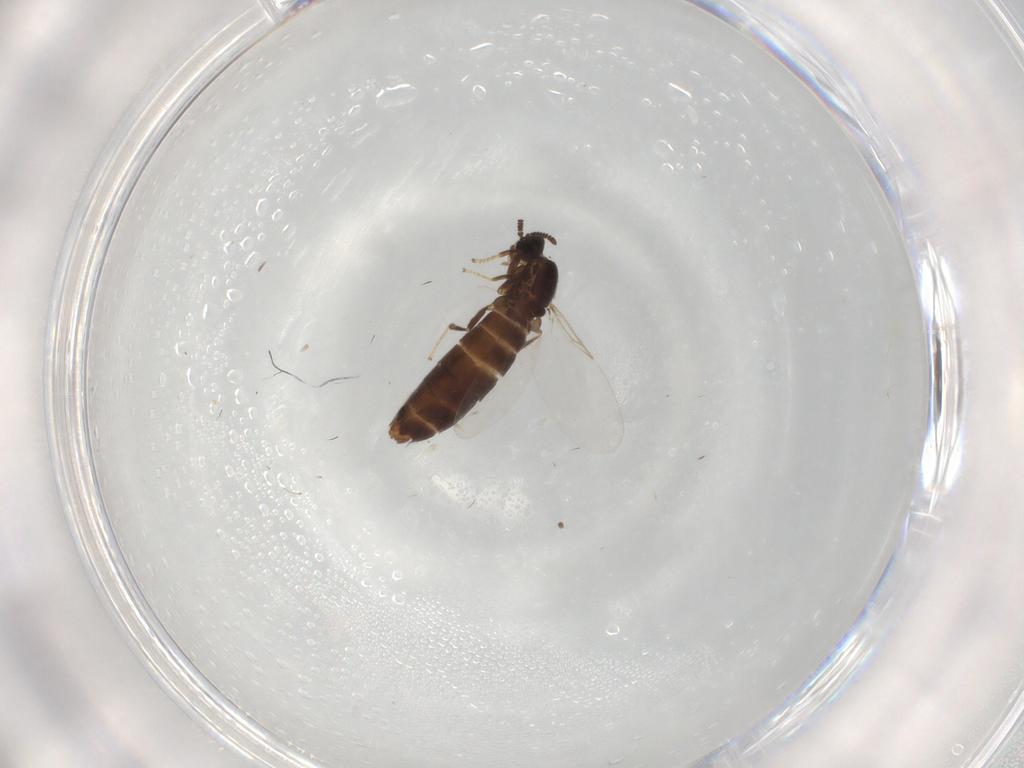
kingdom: Animalia
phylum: Arthropoda
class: Insecta
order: Diptera
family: Scatopsidae
